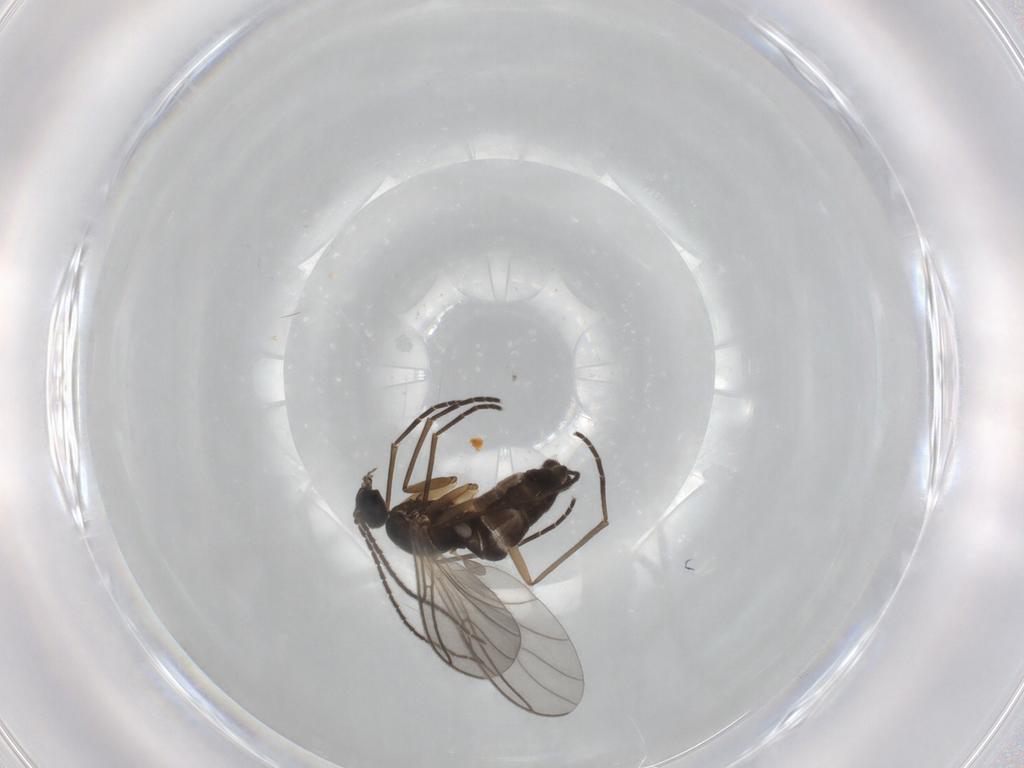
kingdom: Animalia
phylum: Arthropoda
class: Insecta
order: Diptera
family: Sciaridae
